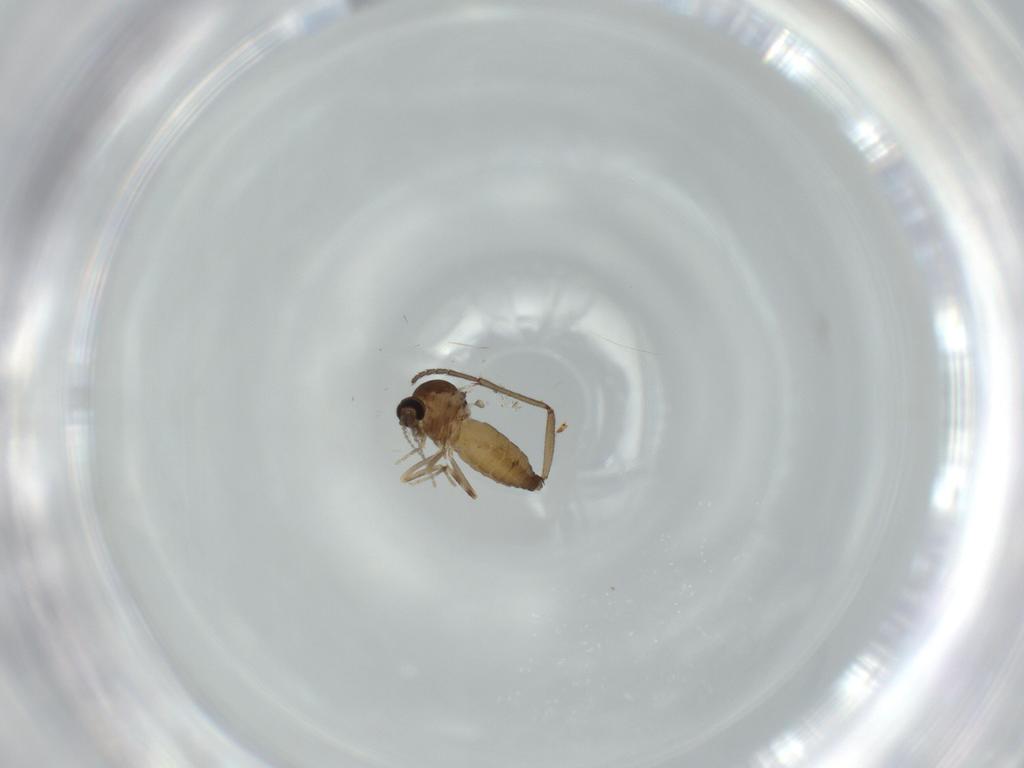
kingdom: Animalia
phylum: Arthropoda
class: Insecta
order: Diptera
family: Ceratopogonidae
